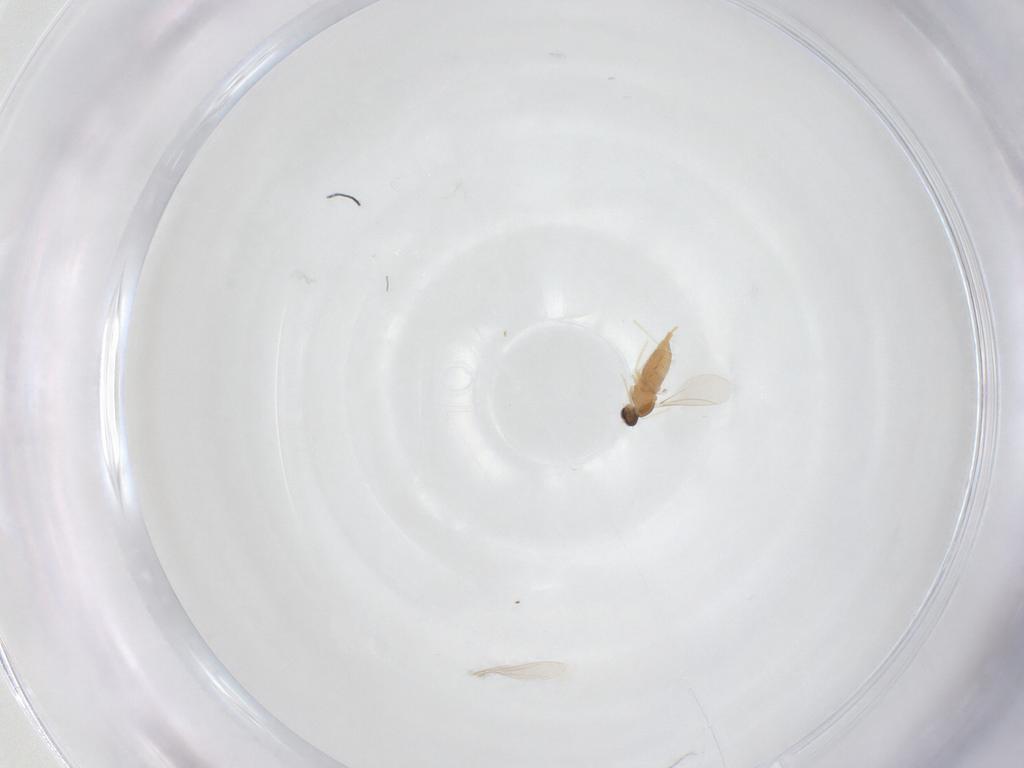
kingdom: Animalia
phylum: Arthropoda
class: Insecta
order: Diptera
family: Cecidomyiidae
